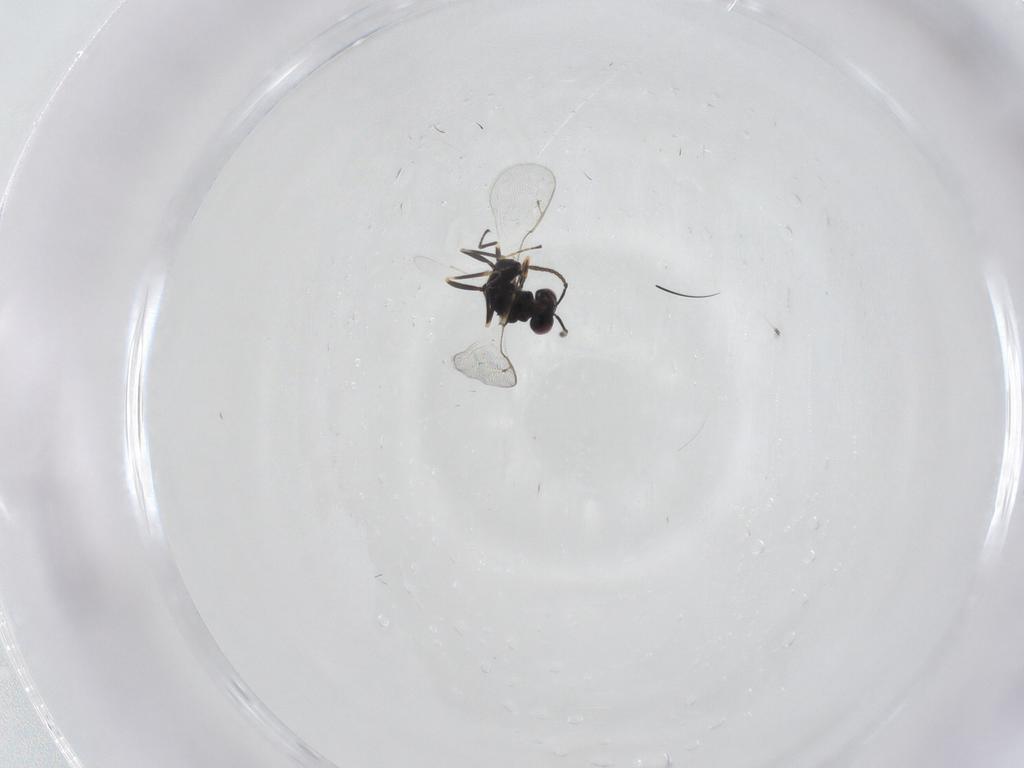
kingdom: Animalia
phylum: Arthropoda
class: Insecta
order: Hymenoptera
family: Pteromalidae
